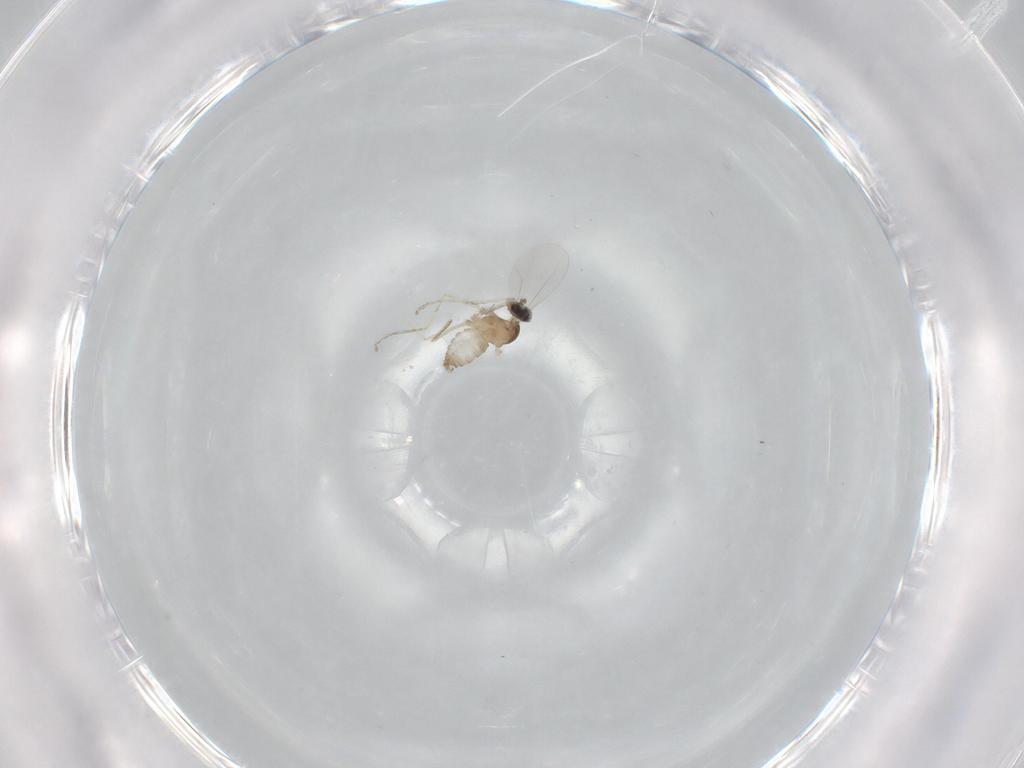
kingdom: Animalia
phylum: Arthropoda
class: Insecta
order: Diptera
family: Cecidomyiidae
